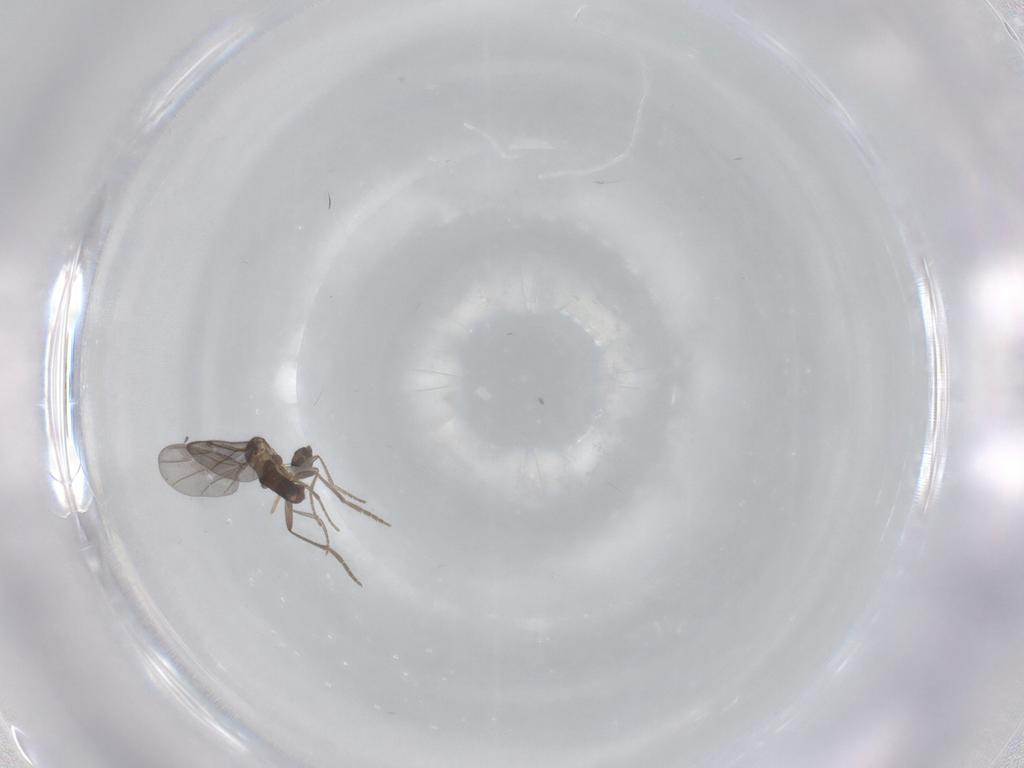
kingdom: Animalia
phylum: Arthropoda
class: Insecta
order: Diptera
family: Phoridae
